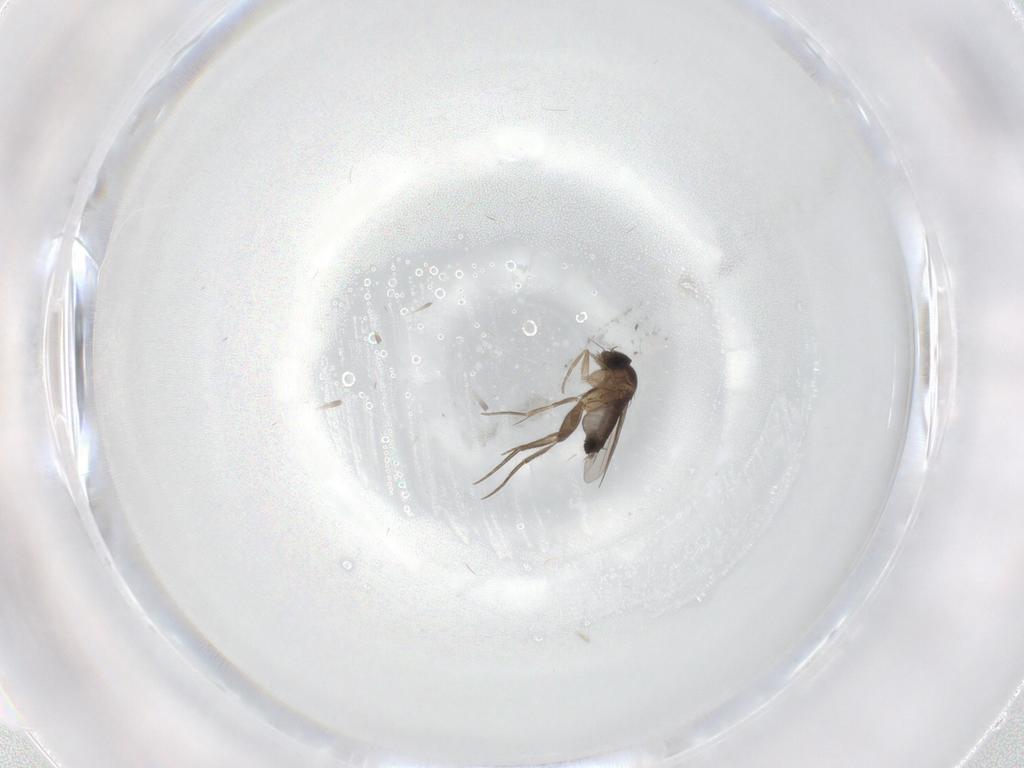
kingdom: Animalia
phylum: Arthropoda
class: Insecta
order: Diptera
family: Phoridae
